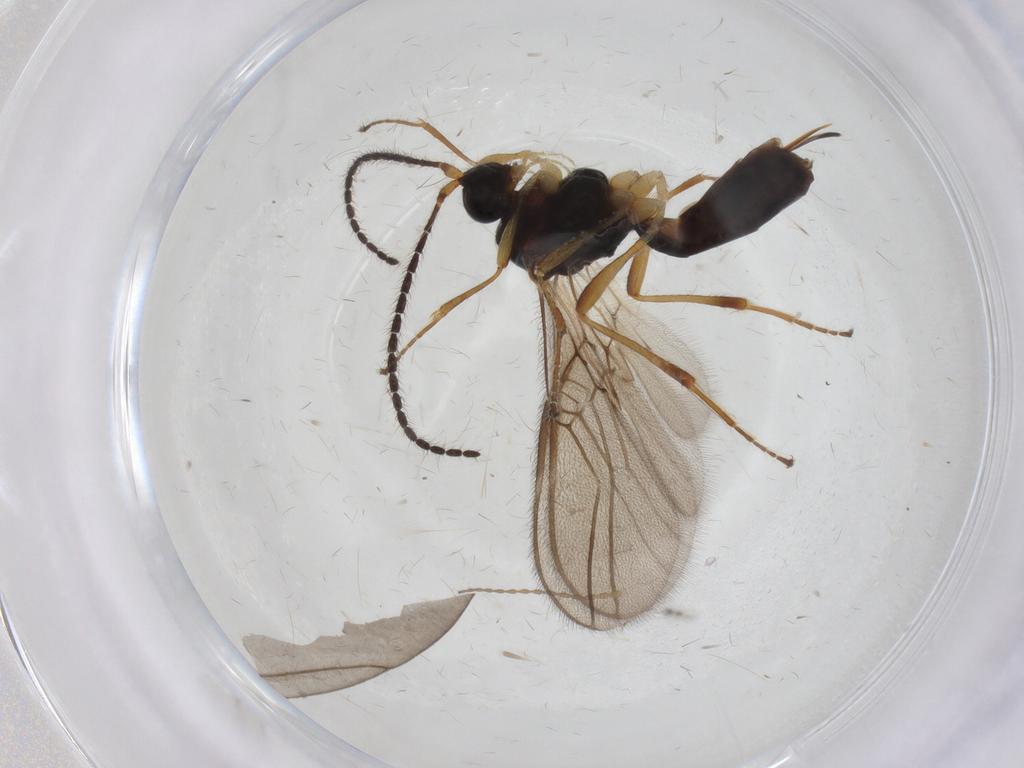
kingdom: Animalia
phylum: Arthropoda
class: Insecta
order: Hymenoptera
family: Braconidae
